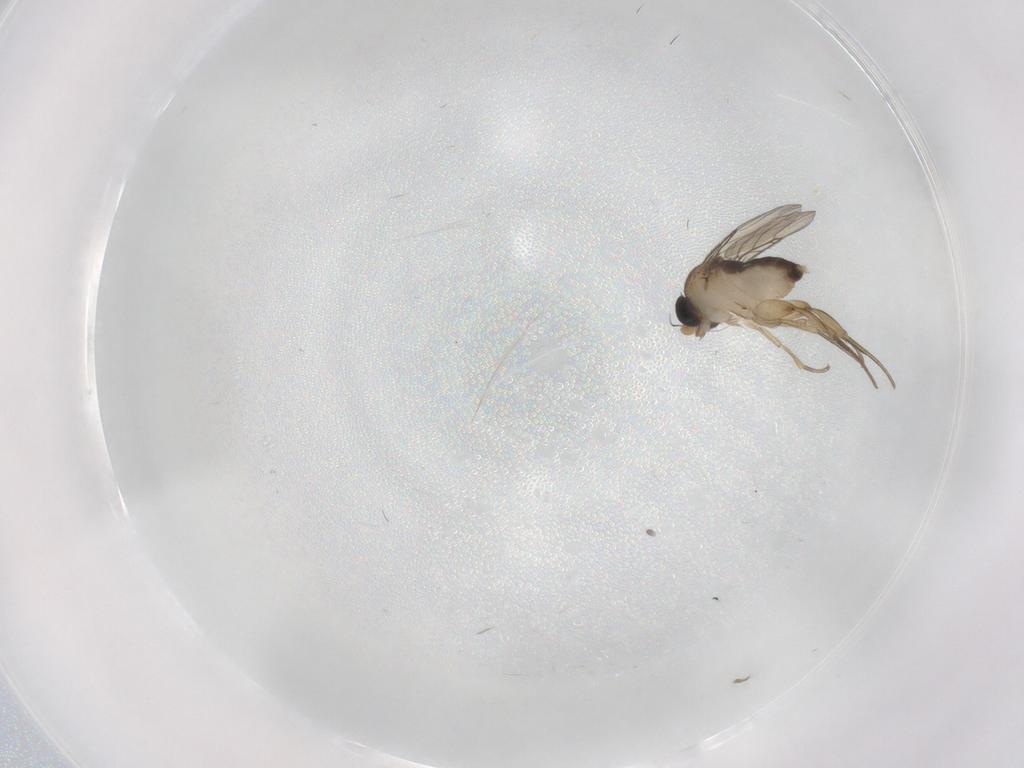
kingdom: Animalia
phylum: Arthropoda
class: Insecta
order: Diptera
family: Phoridae
